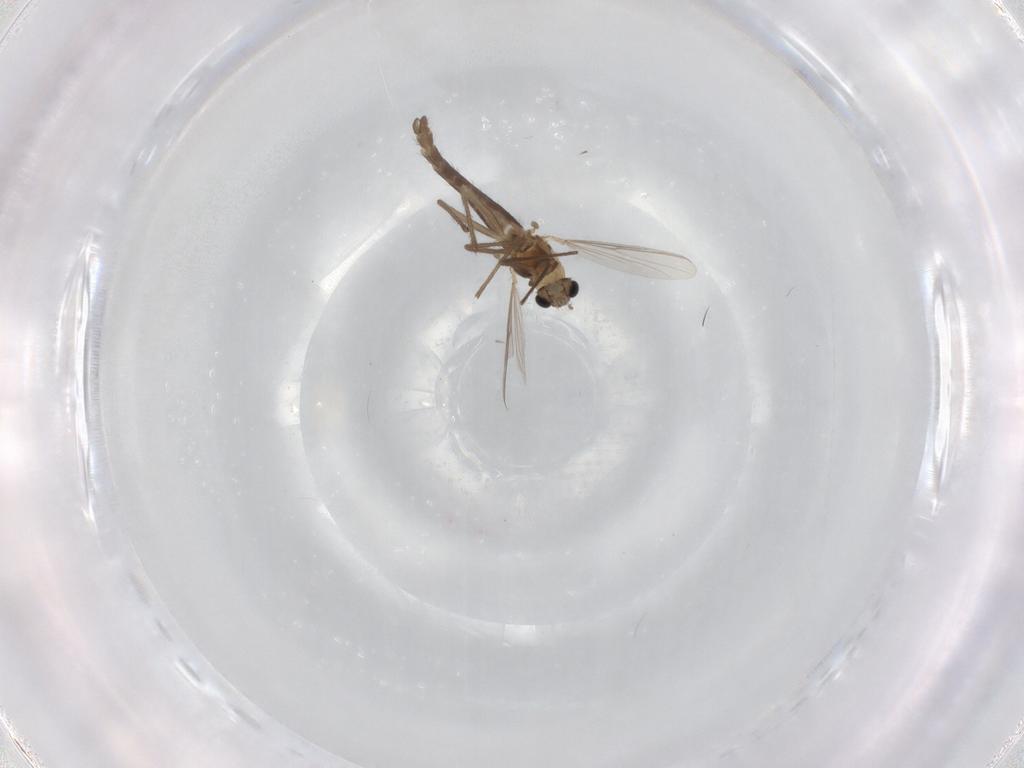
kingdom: Animalia
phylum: Arthropoda
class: Insecta
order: Diptera
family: Chironomidae
